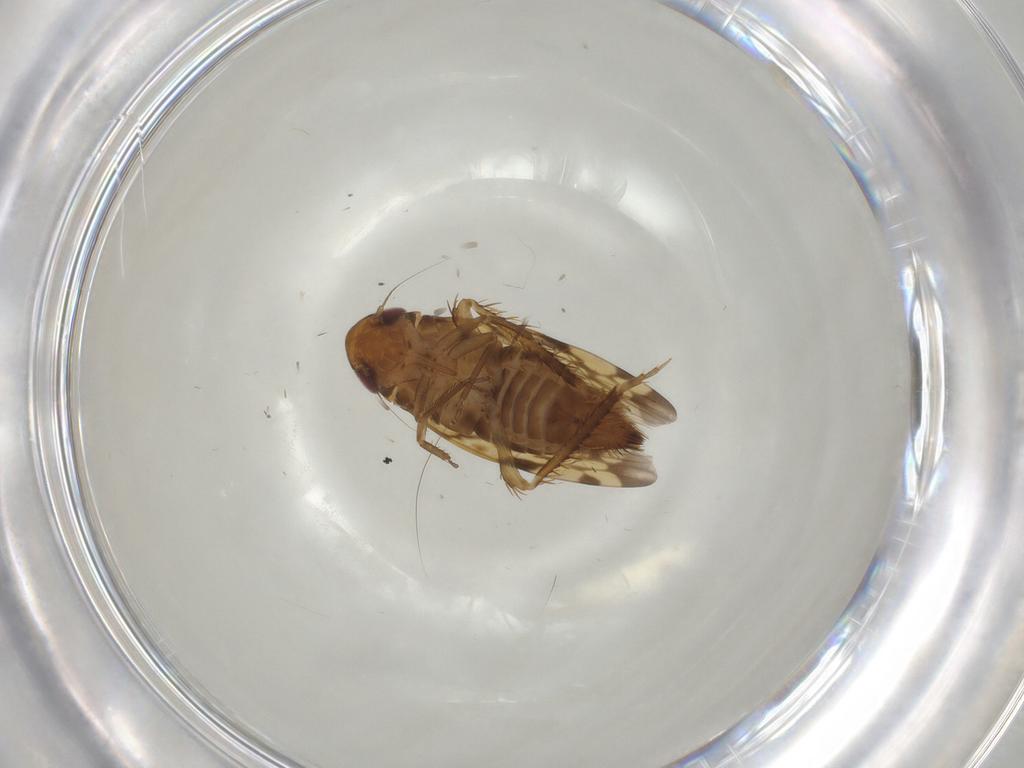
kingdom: Animalia
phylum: Arthropoda
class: Insecta
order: Hemiptera
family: Cicadellidae
